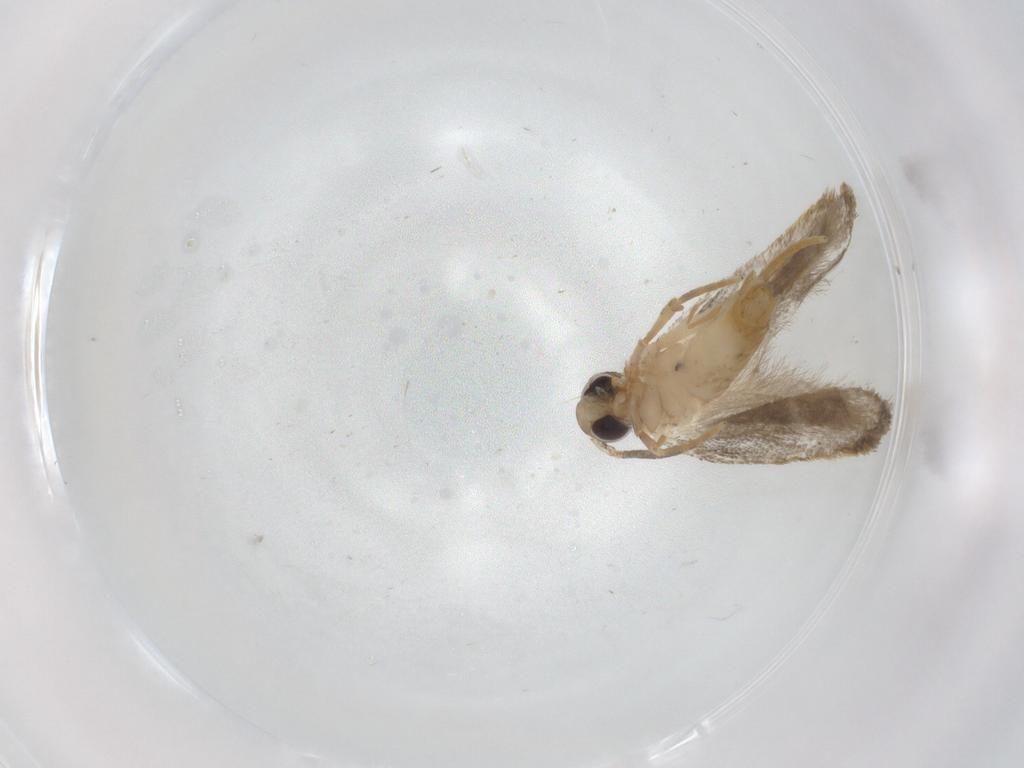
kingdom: Animalia
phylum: Arthropoda
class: Insecta
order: Lepidoptera
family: Autostichidae
